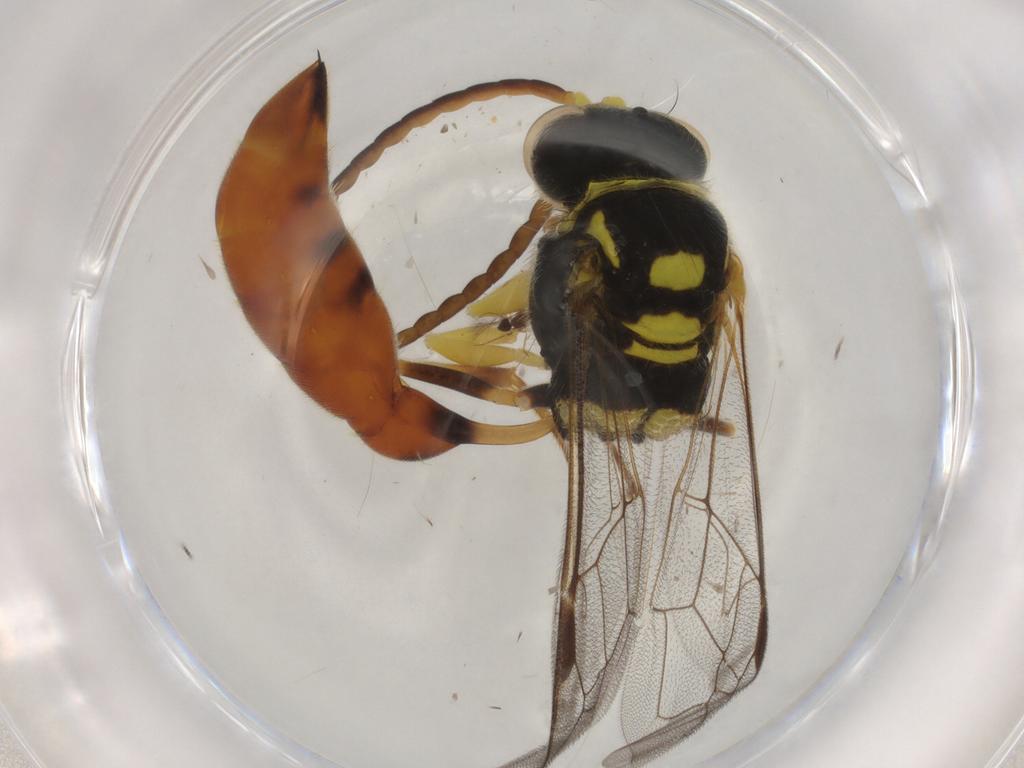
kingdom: Animalia
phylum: Arthropoda
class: Insecta
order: Hymenoptera
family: Crabronidae
